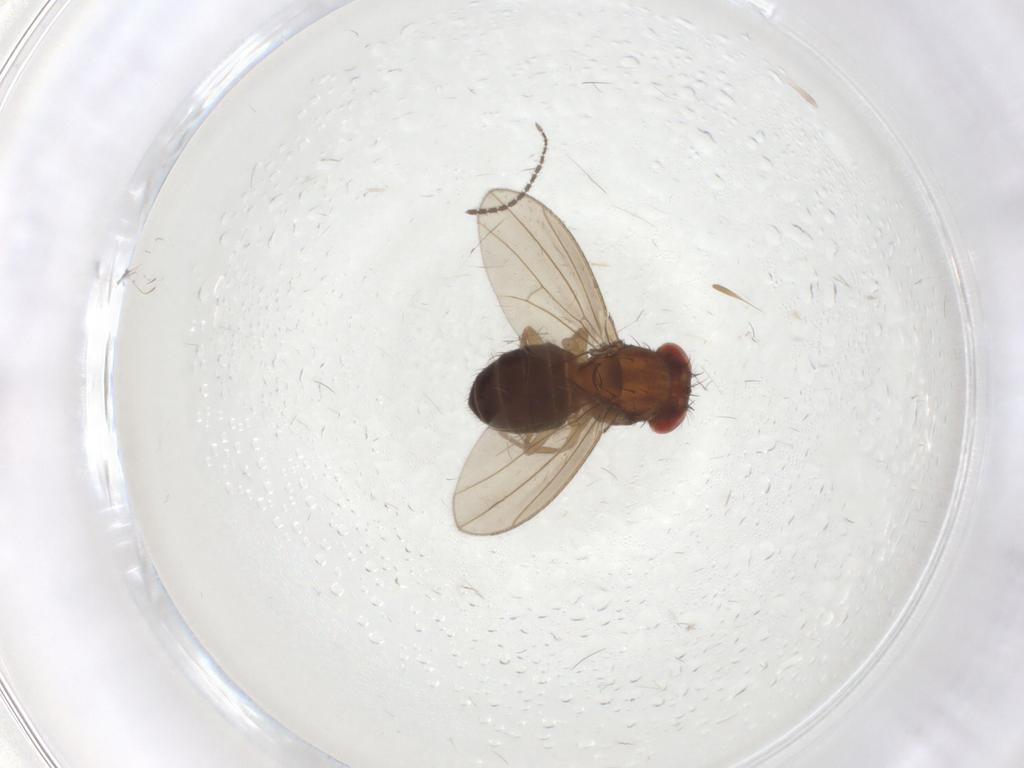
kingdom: Animalia
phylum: Arthropoda
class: Insecta
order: Diptera
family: Drosophilidae
